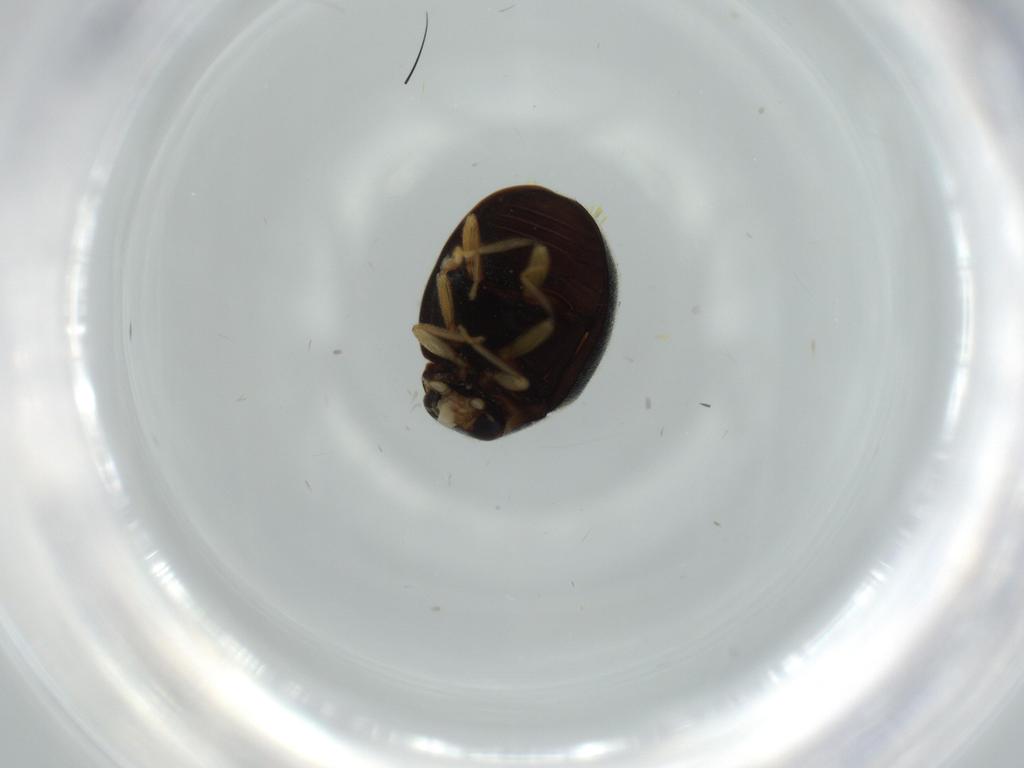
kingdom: Animalia
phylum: Arthropoda
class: Insecta
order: Coleoptera
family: Coccinellidae
